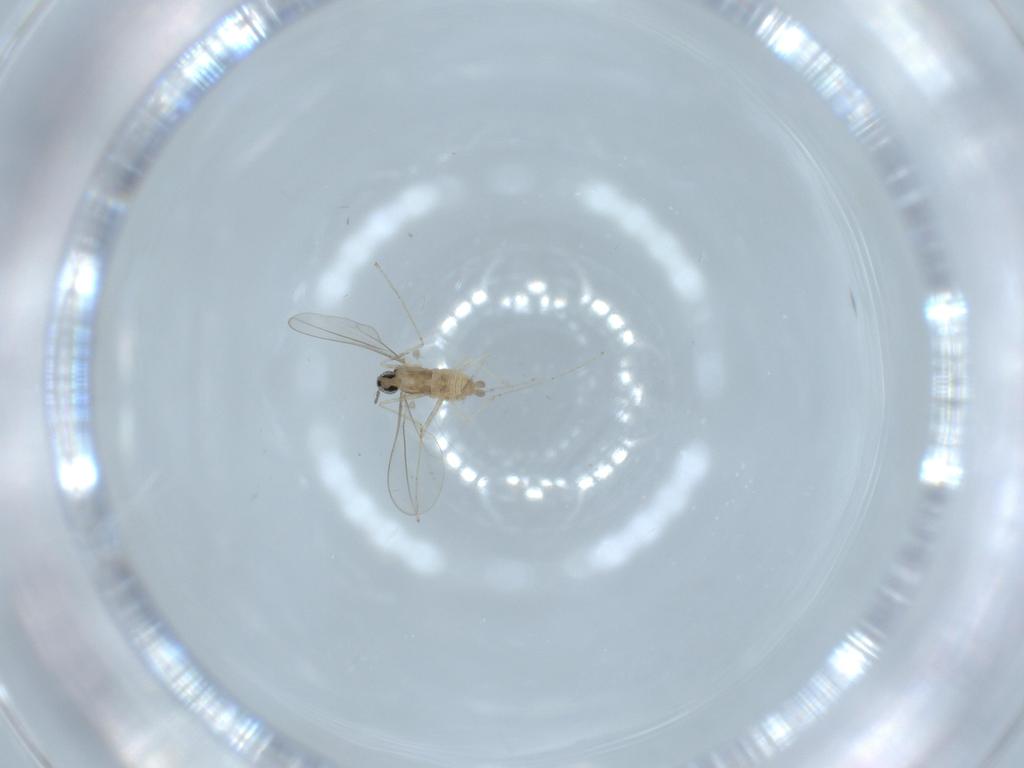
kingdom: Animalia
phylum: Arthropoda
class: Insecta
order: Diptera
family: Cecidomyiidae
